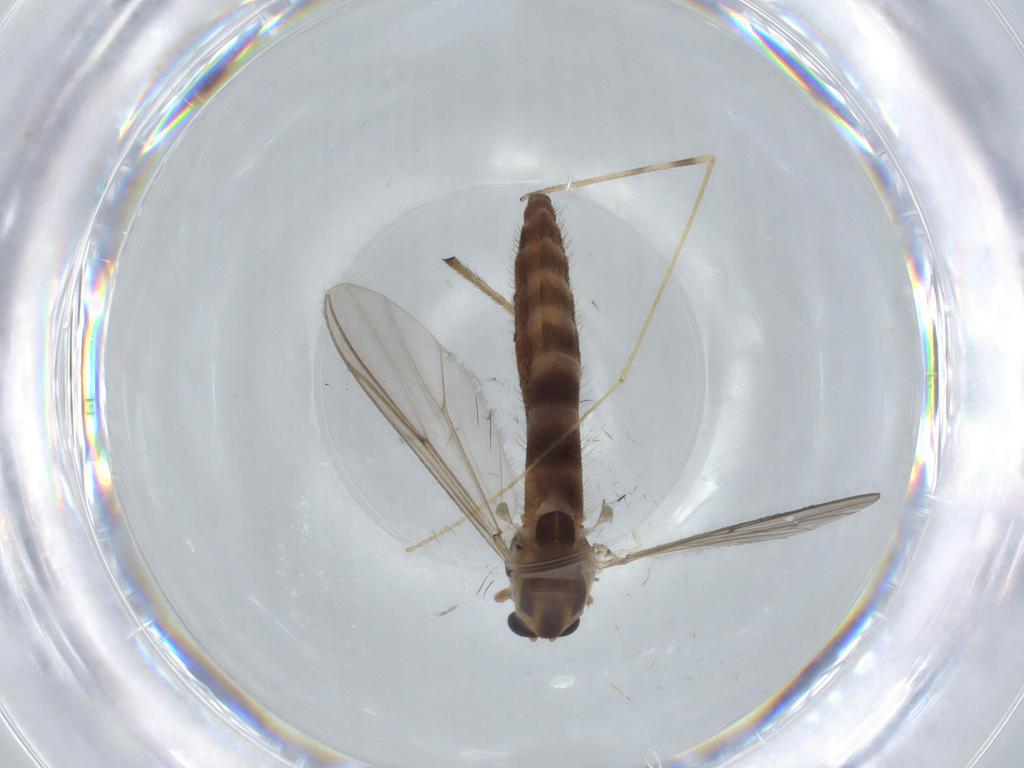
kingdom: Animalia
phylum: Arthropoda
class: Insecta
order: Diptera
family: Chironomidae
